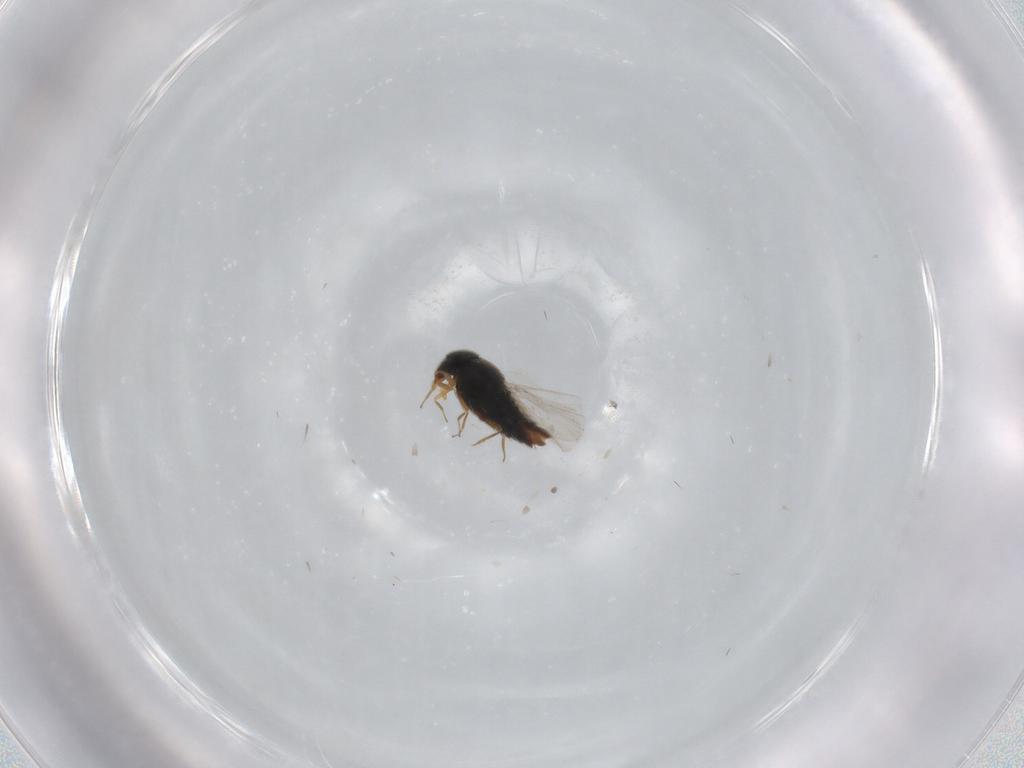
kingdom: Animalia
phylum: Arthropoda
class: Insecta
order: Coleoptera
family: Staphylinidae
